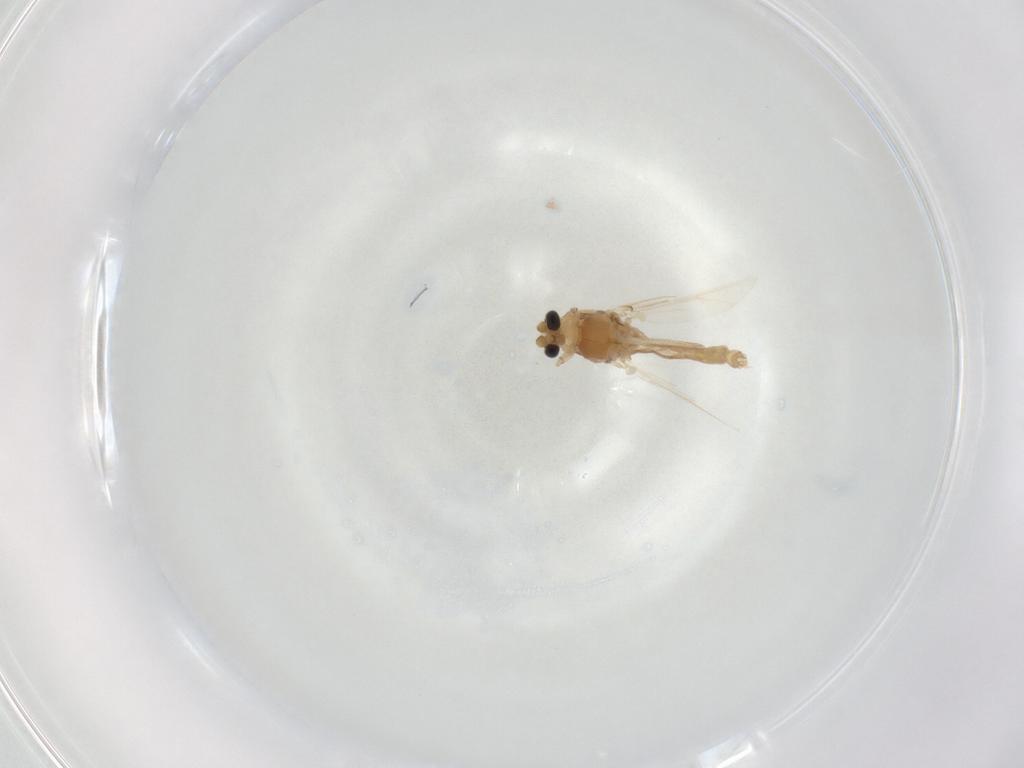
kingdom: Animalia
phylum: Arthropoda
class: Insecta
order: Diptera
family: Chironomidae
